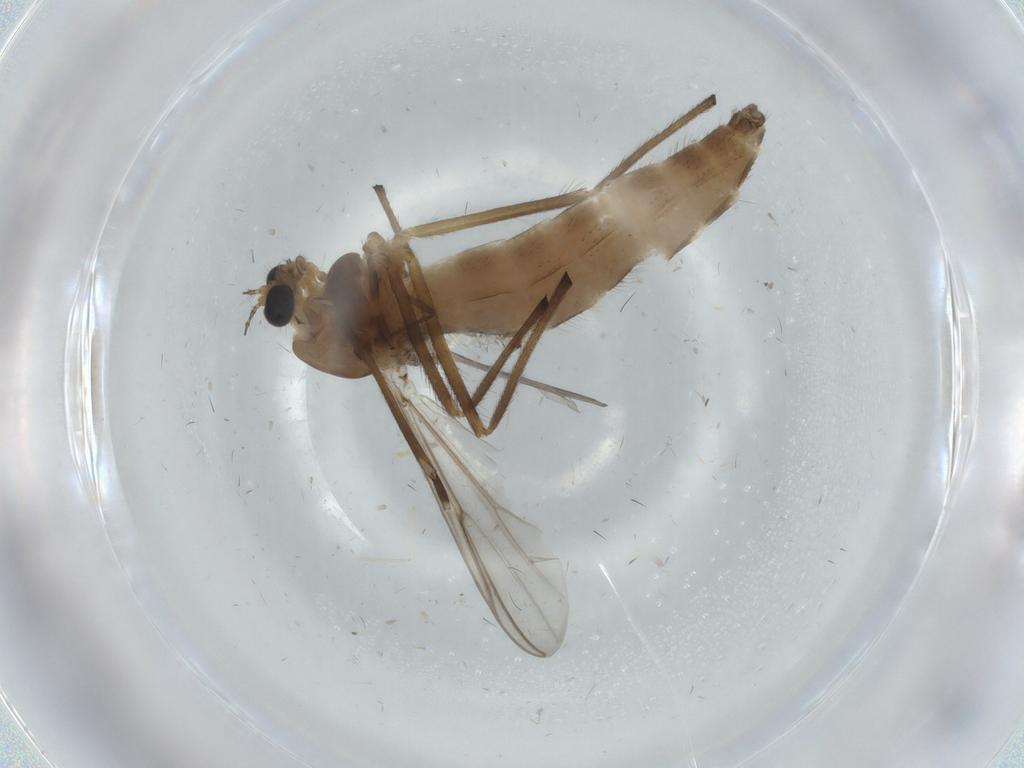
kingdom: Animalia
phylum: Arthropoda
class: Insecta
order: Diptera
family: Chironomidae
